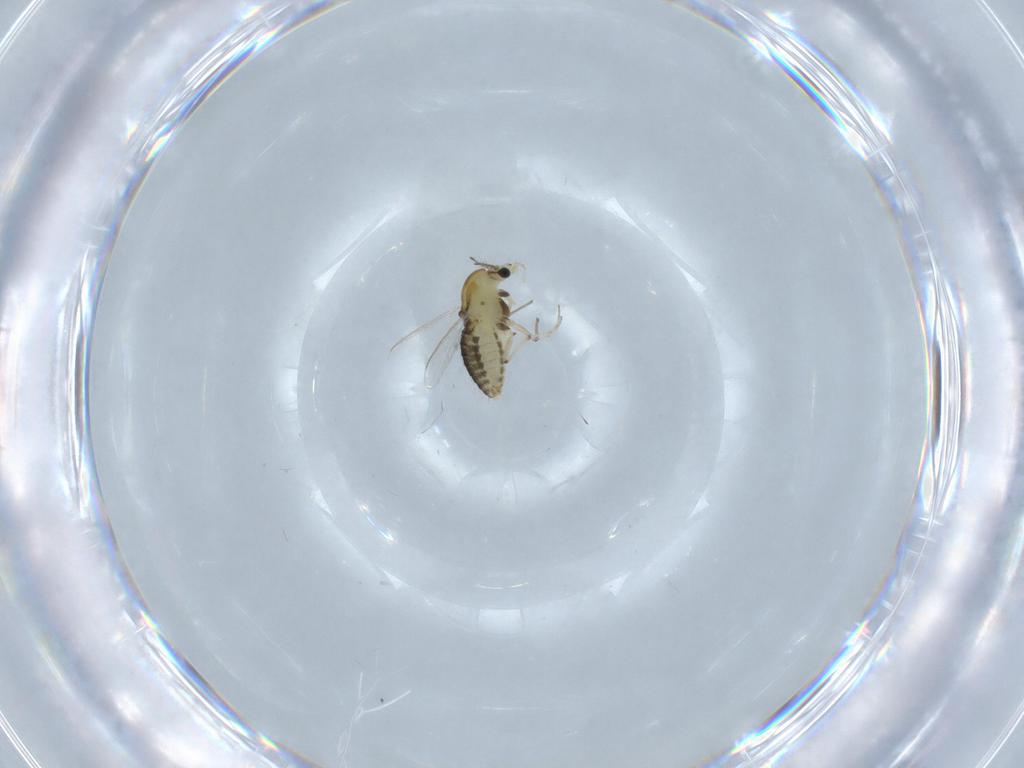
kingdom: Animalia
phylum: Arthropoda
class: Insecta
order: Diptera
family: Chironomidae
